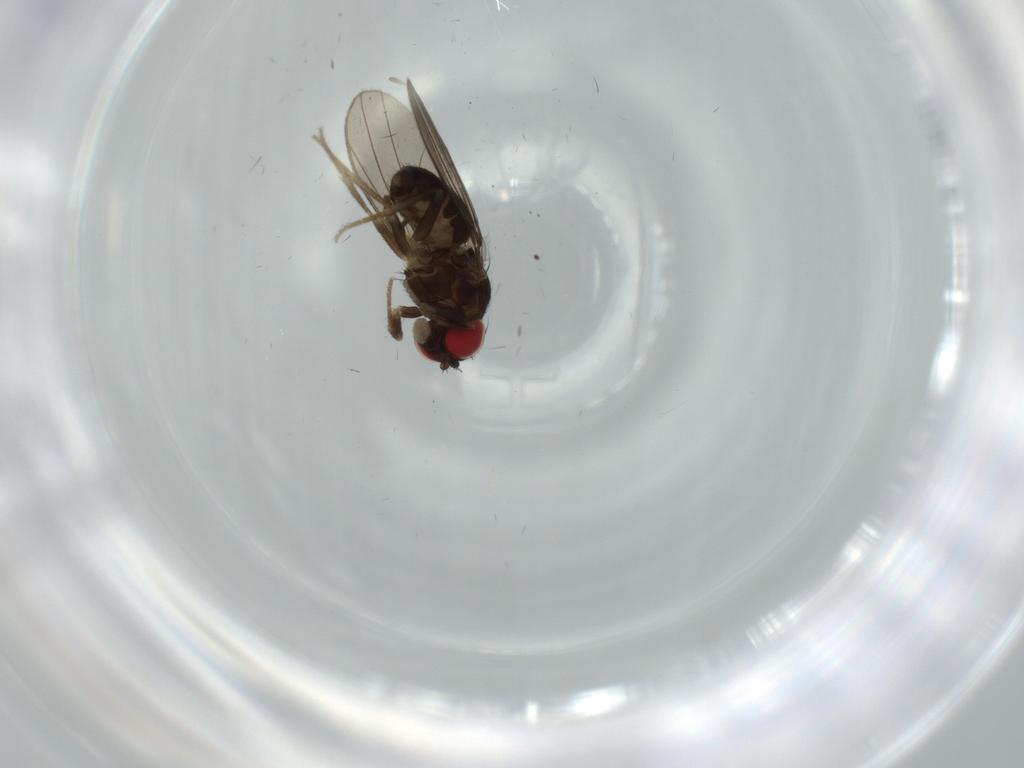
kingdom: Animalia
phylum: Arthropoda
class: Insecta
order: Diptera
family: Drosophilidae
